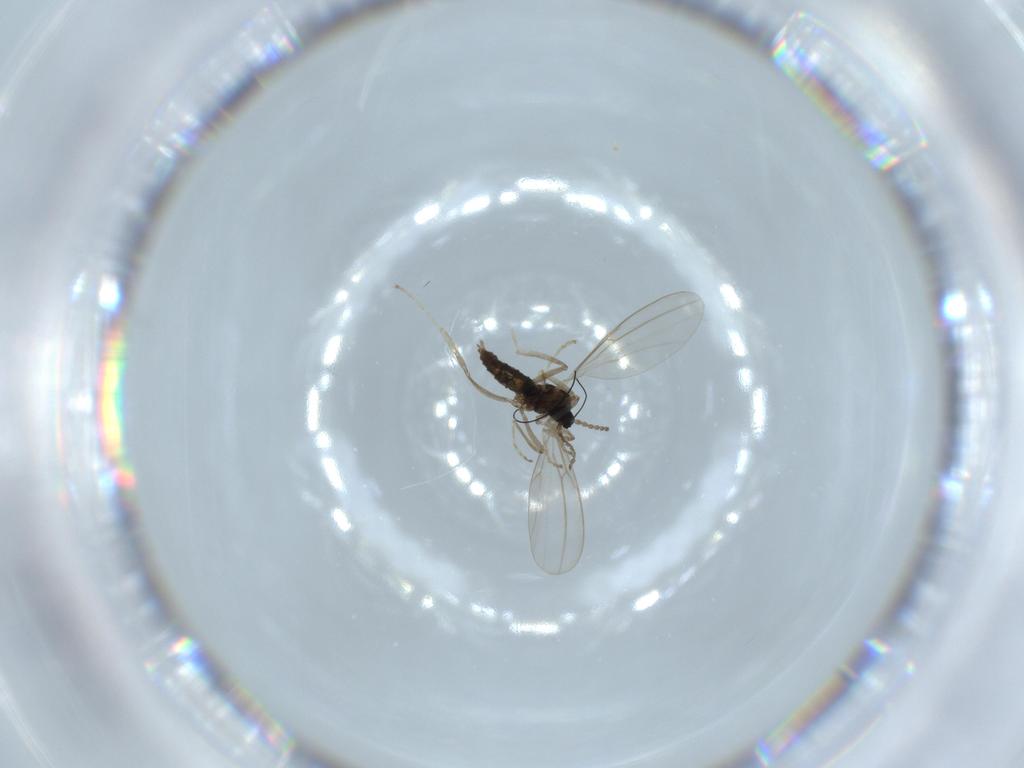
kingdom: Animalia
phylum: Arthropoda
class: Insecta
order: Diptera
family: Cecidomyiidae
